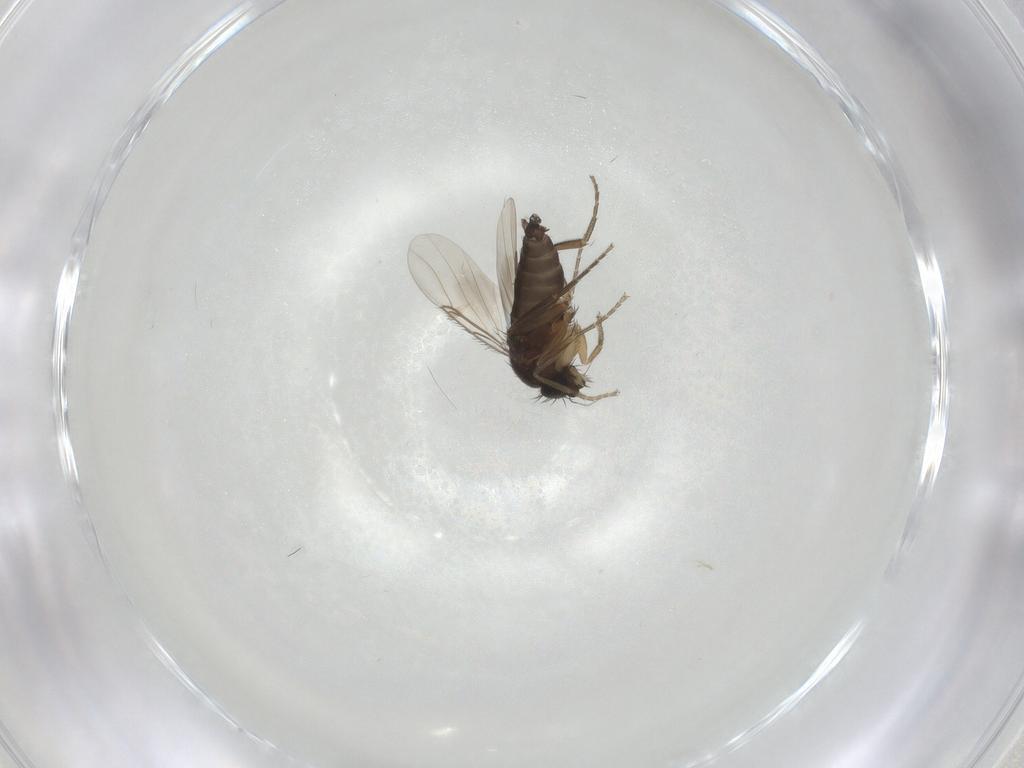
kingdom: Animalia
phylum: Arthropoda
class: Insecta
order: Diptera
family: Phoridae
